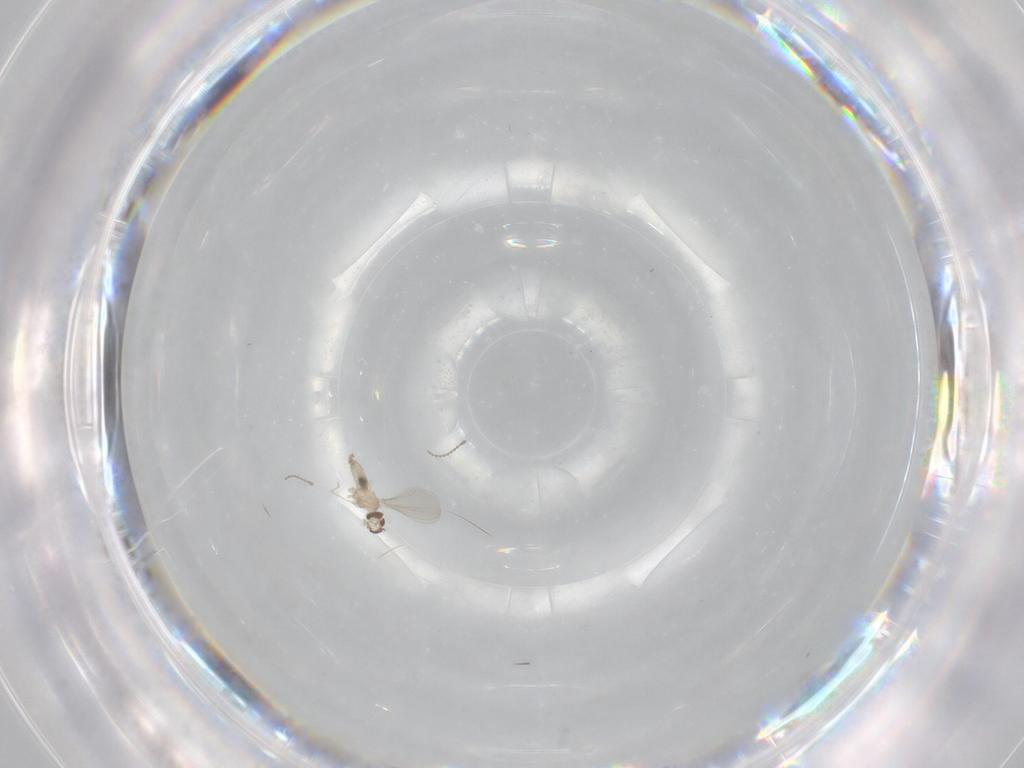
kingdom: Animalia
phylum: Arthropoda
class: Insecta
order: Diptera
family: Cecidomyiidae
